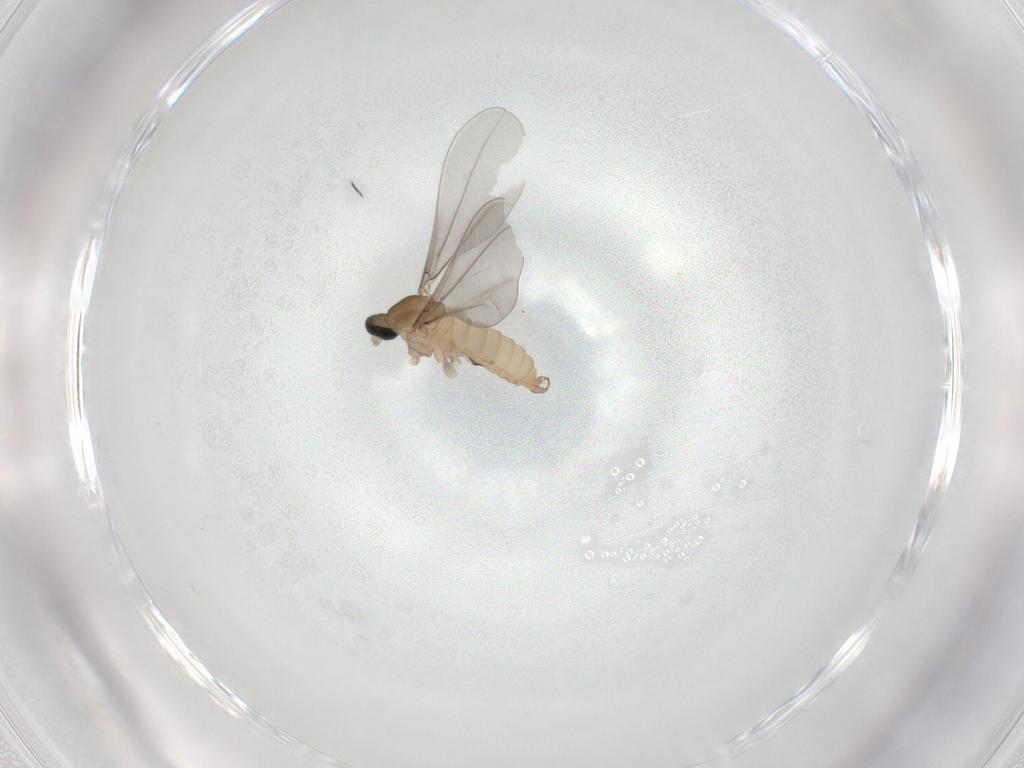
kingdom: Animalia
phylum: Arthropoda
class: Insecta
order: Diptera
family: Cecidomyiidae
